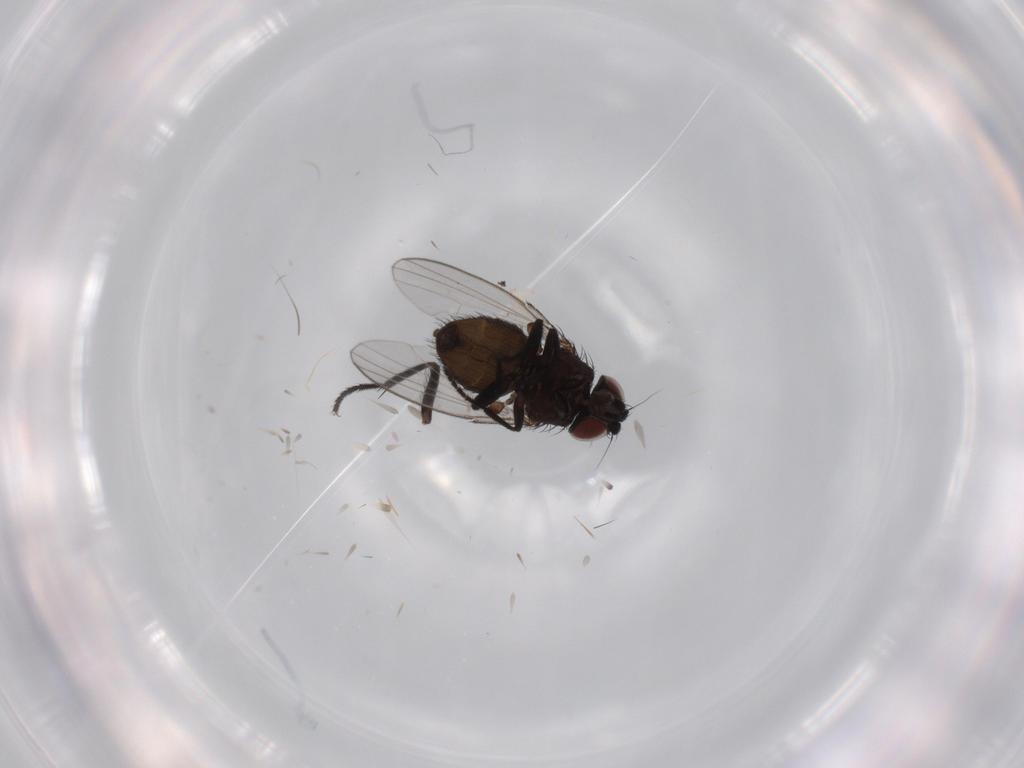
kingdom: Animalia
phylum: Arthropoda
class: Insecta
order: Diptera
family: Milichiidae
